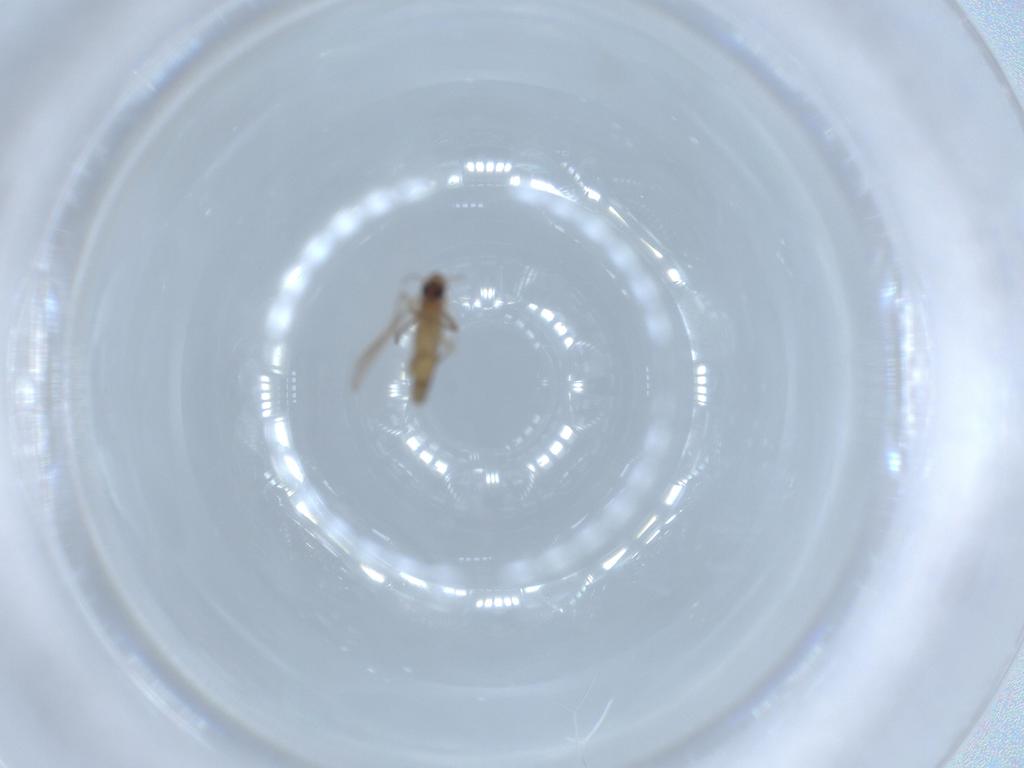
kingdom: Animalia
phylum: Arthropoda
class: Insecta
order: Diptera
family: Chironomidae
